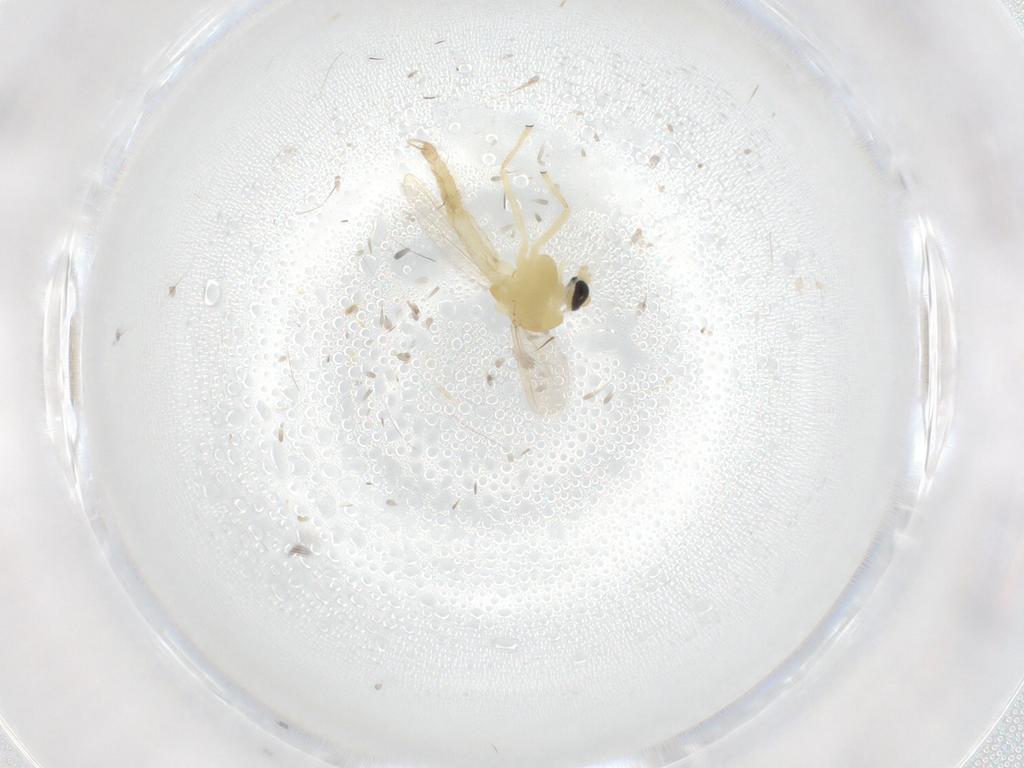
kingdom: Animalia
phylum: Arthropoda
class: Insecta
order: Diptera
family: Chironomidae
